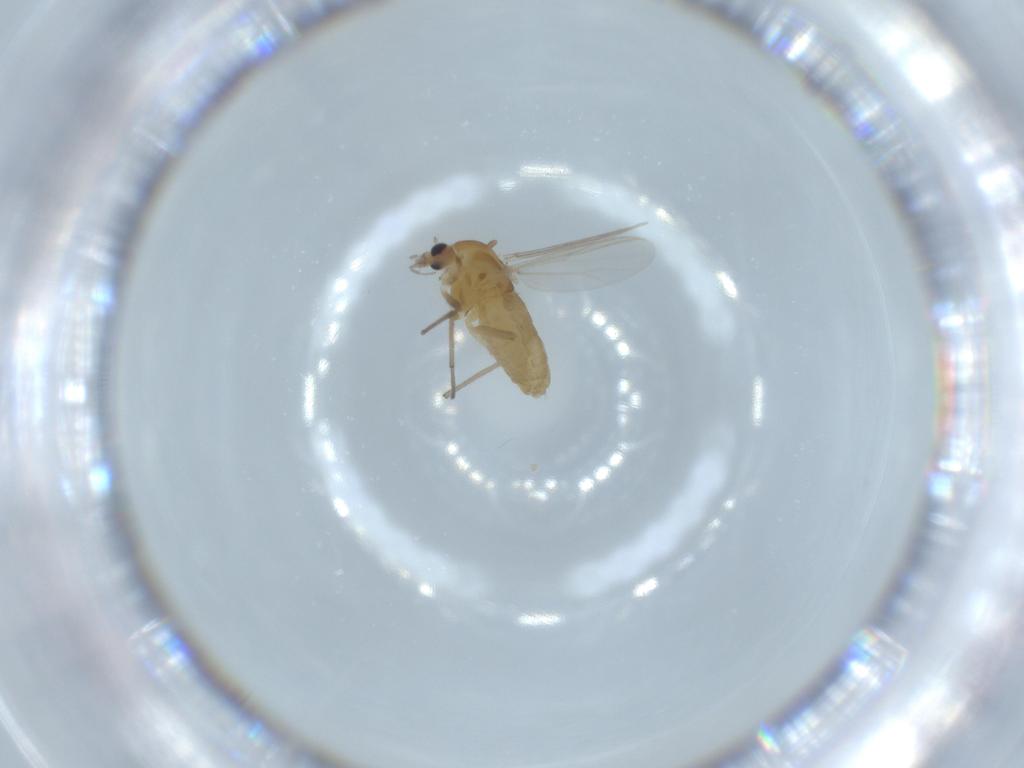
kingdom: Animalia
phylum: Arthropoda
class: Insecta
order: Diptera
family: Chironomidae
